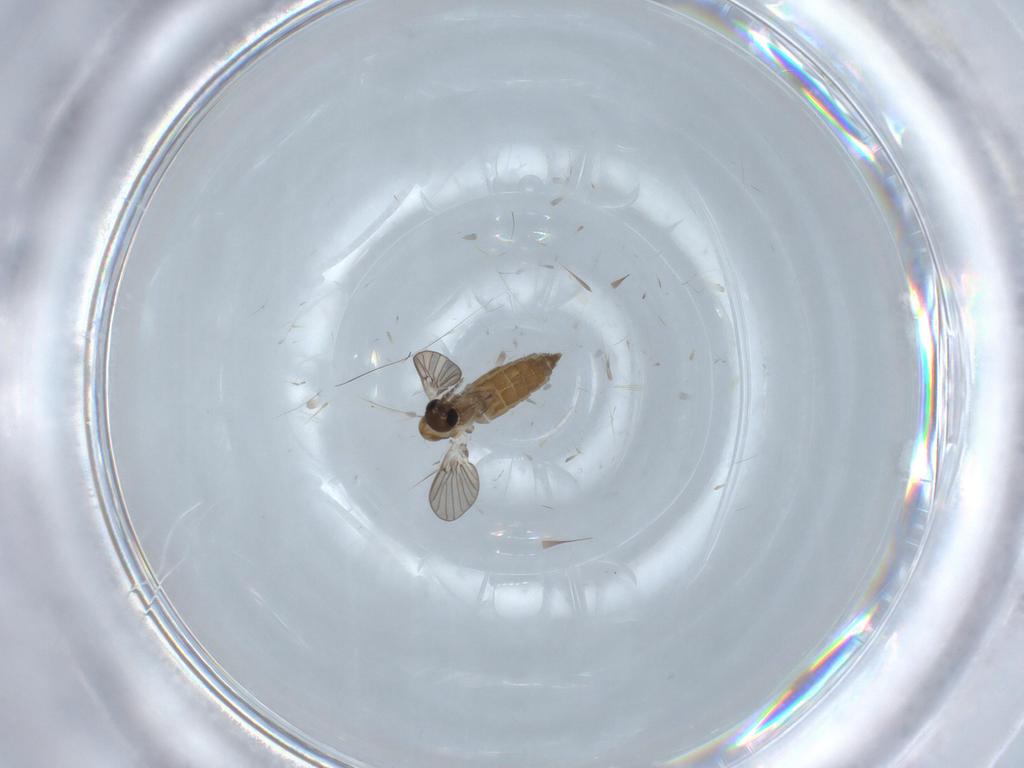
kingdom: Animalia
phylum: Arthropoda
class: Insecta
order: Diptera
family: Psychodidae
